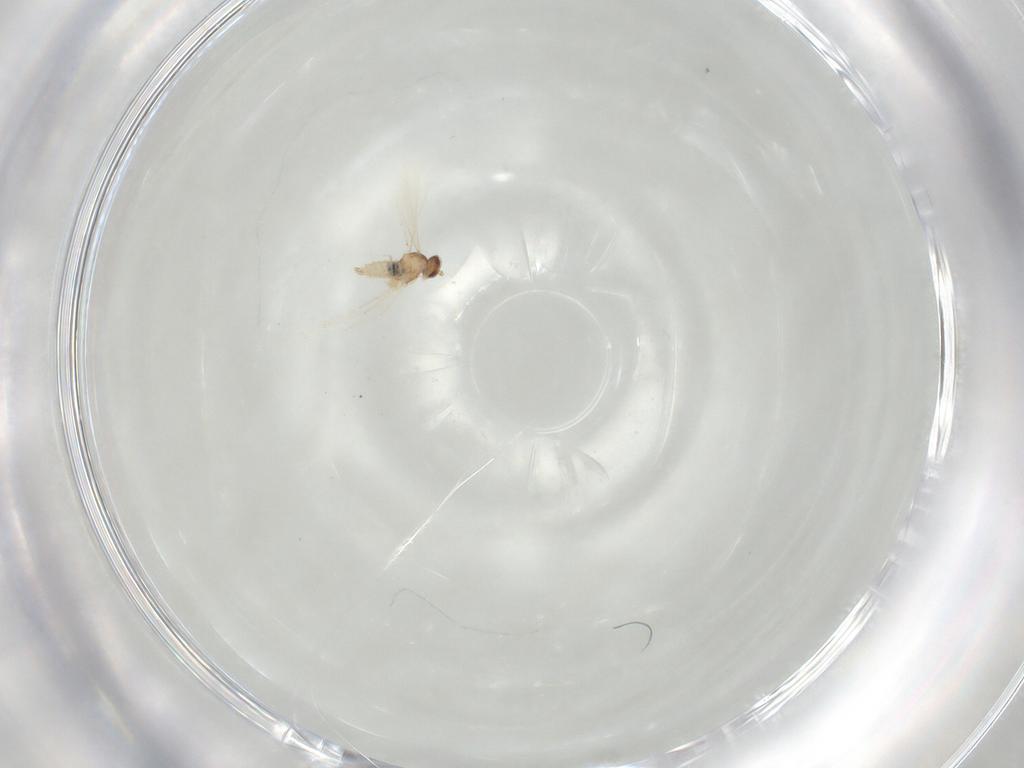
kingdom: Animalia
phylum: Arthropoda
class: Insecta
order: Diptera
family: Cecidomyiidae
